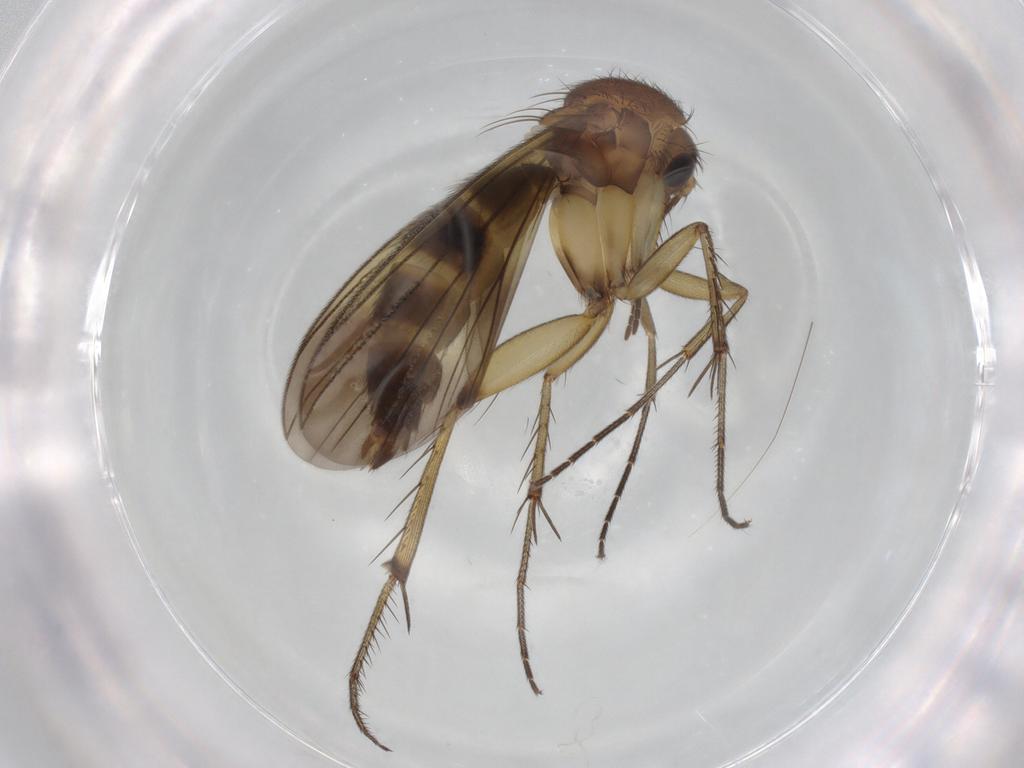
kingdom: Animalia
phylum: Arthropoda
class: Insecta
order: Diptera
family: Mycetophilidae
